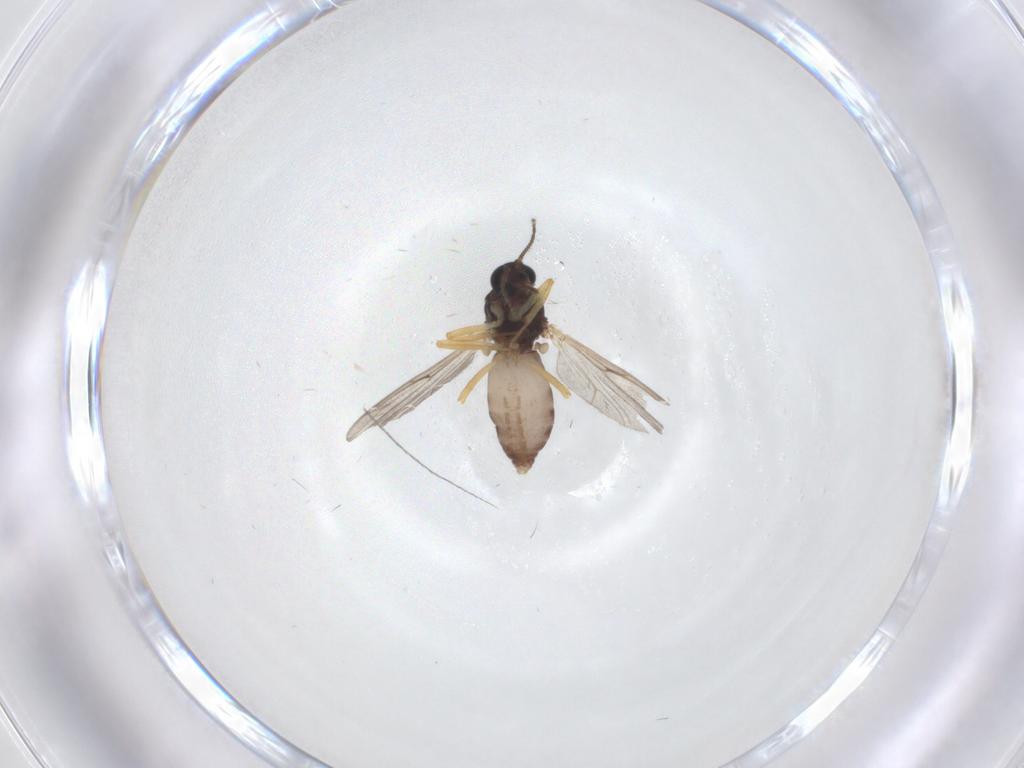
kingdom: Animalia
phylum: Arthropoda
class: Insecta
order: Diptera
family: Ceratopogonidae
